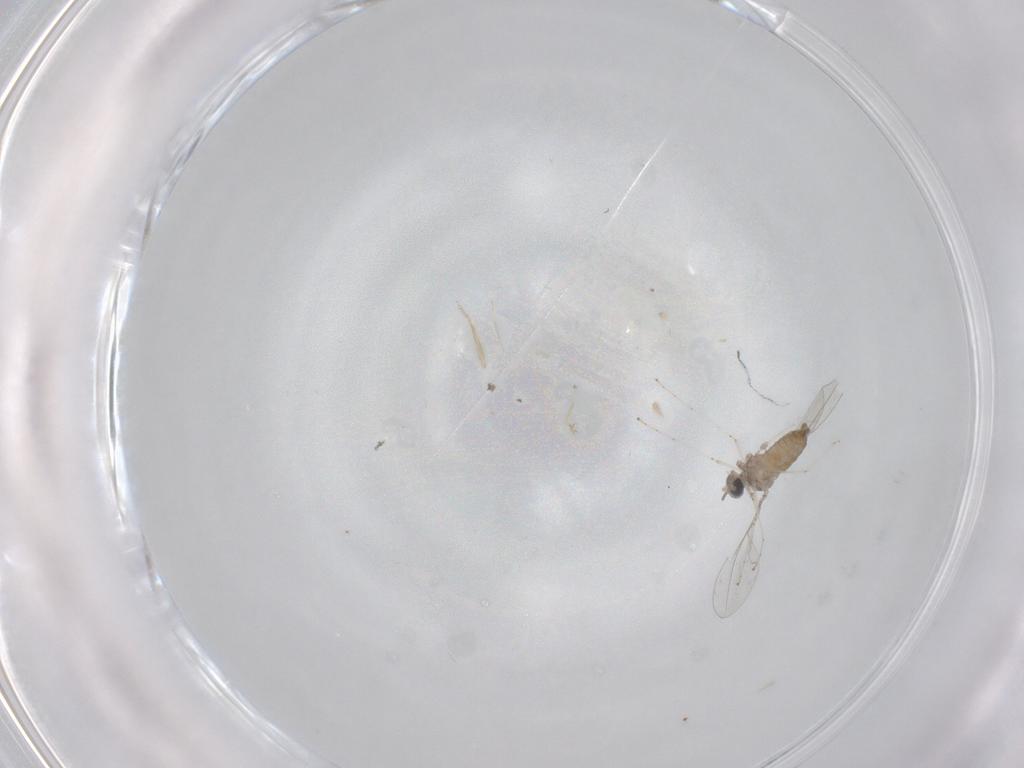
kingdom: Animalia
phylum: Arthropoda
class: Insecta
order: Diptera
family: Cecidomyiidae
